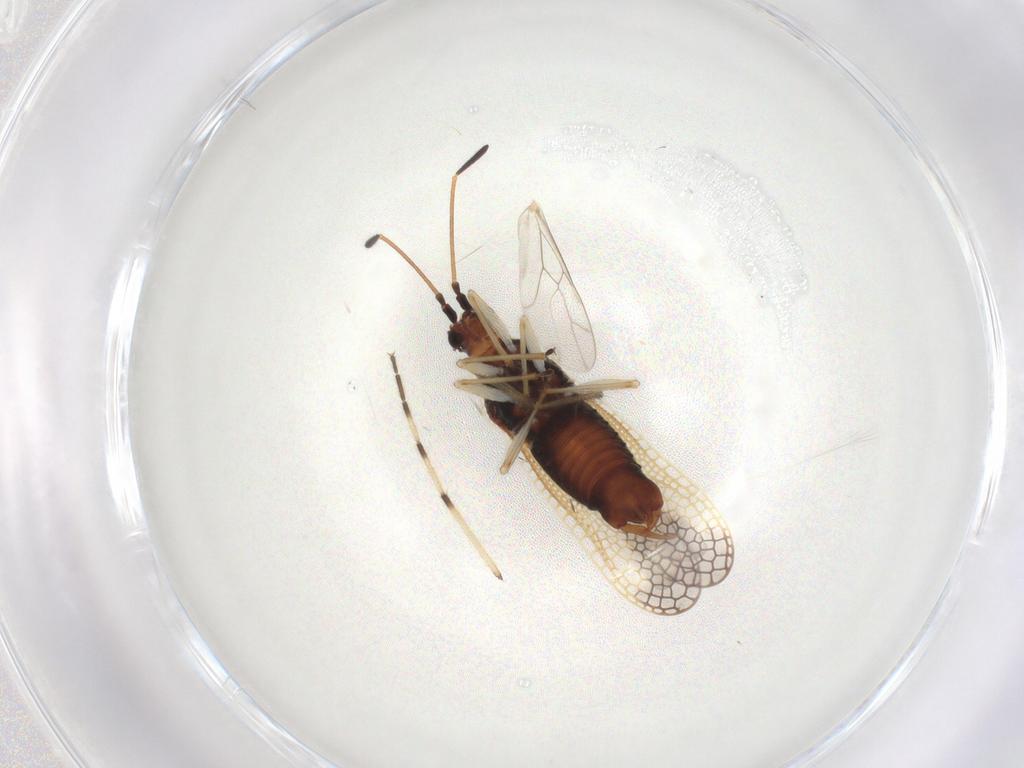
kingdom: Animalia
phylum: Arthropoda
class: Insecta
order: Hemiptera
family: Tingidae
